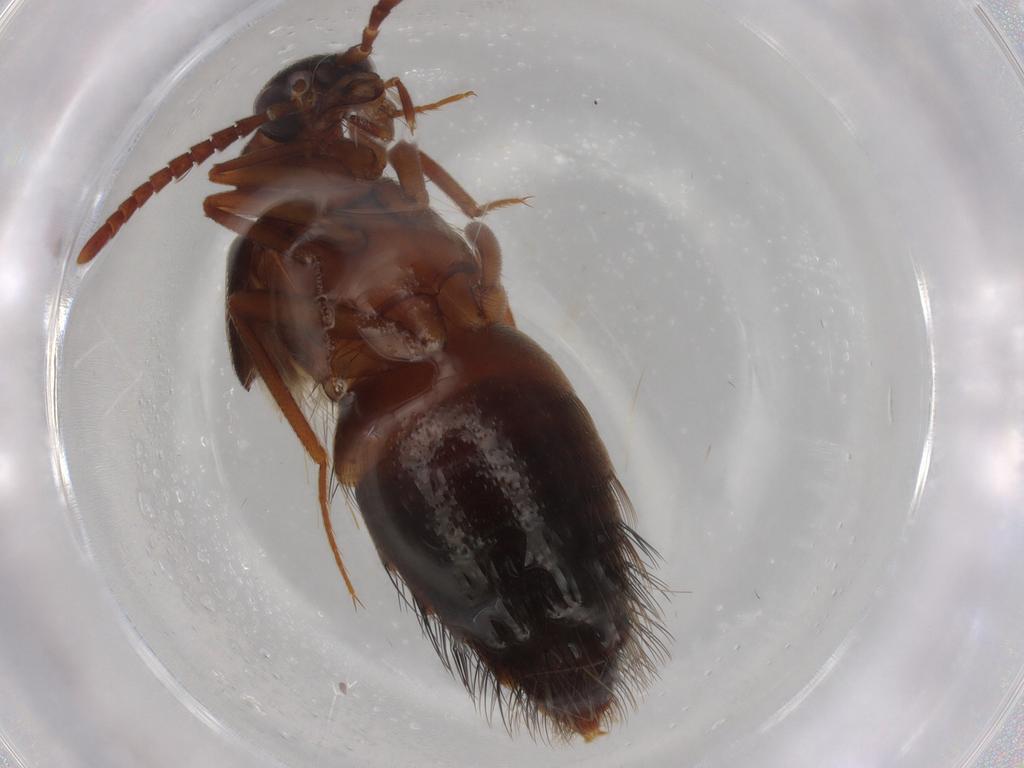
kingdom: Animalia
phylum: Arthropoda
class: Insecta
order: Coleoptera
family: Staphylinidae
